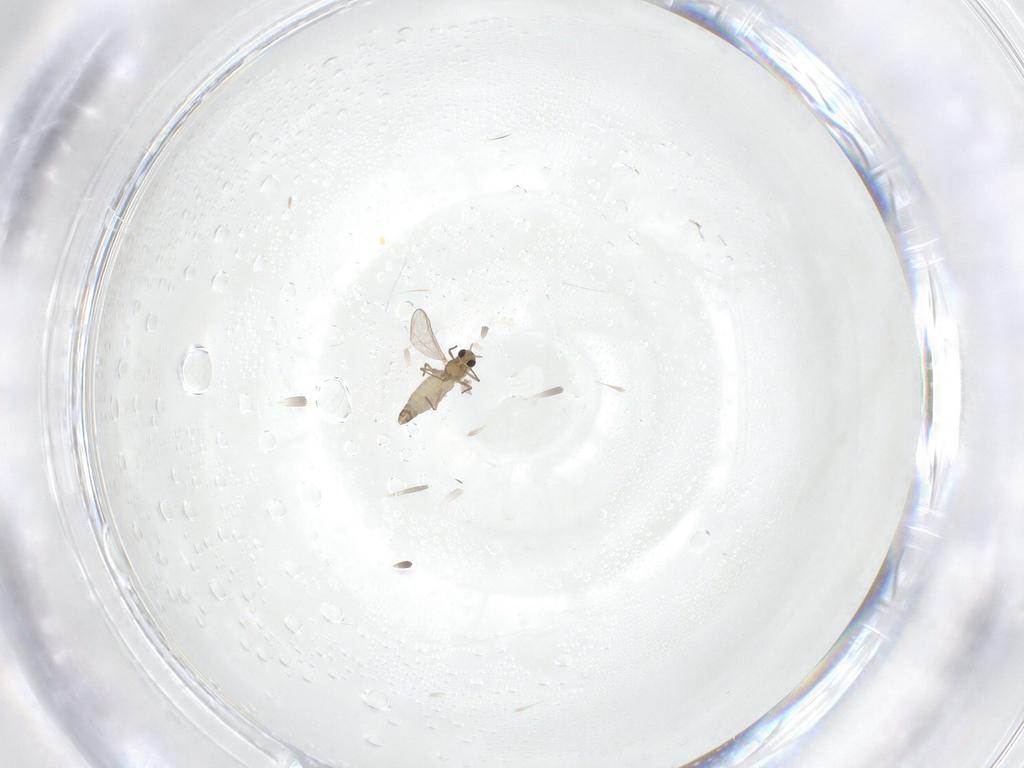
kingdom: Animalia
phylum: Arthropoda
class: Insecta
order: Diptera
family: Chironomidae
